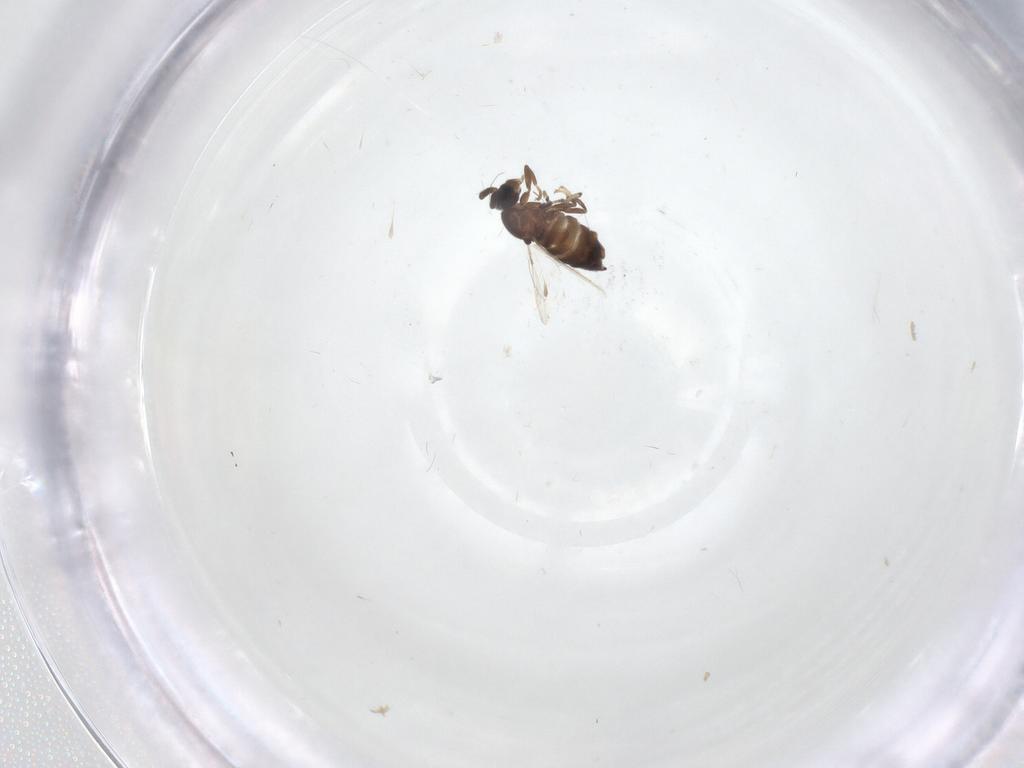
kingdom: Animalia
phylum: Arthropoda
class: Insecta
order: Diptera
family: Scatopsidae
